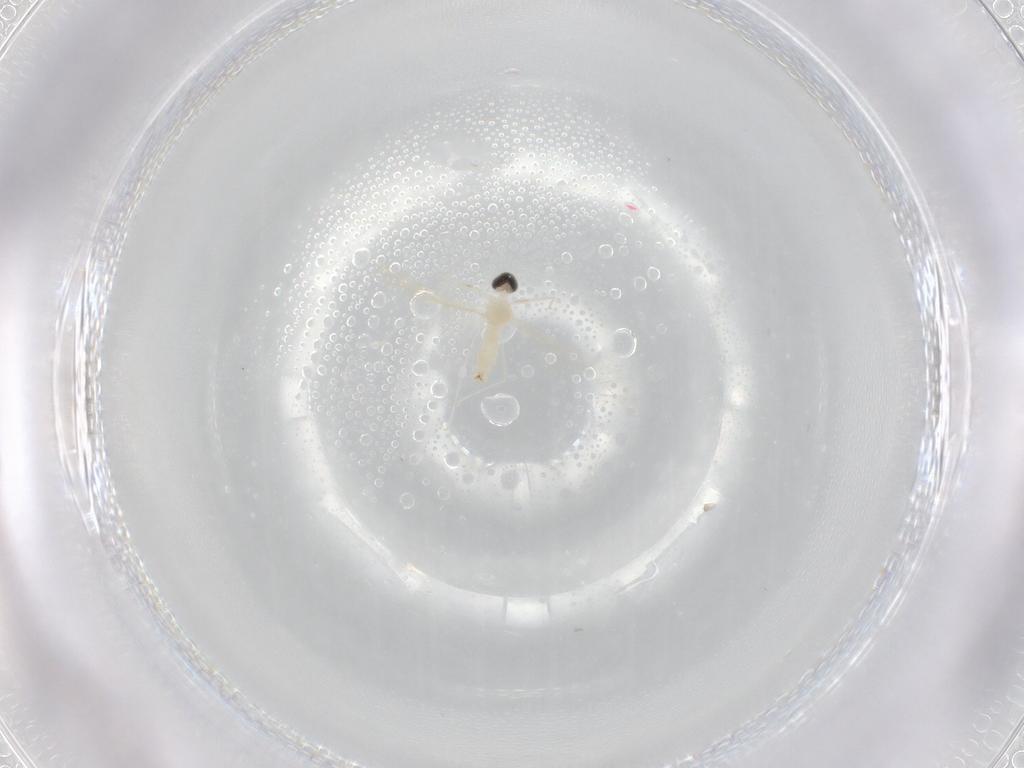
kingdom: Animalia
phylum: Arthropoda
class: Insecta
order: Diptera
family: Cecidomyiidae
